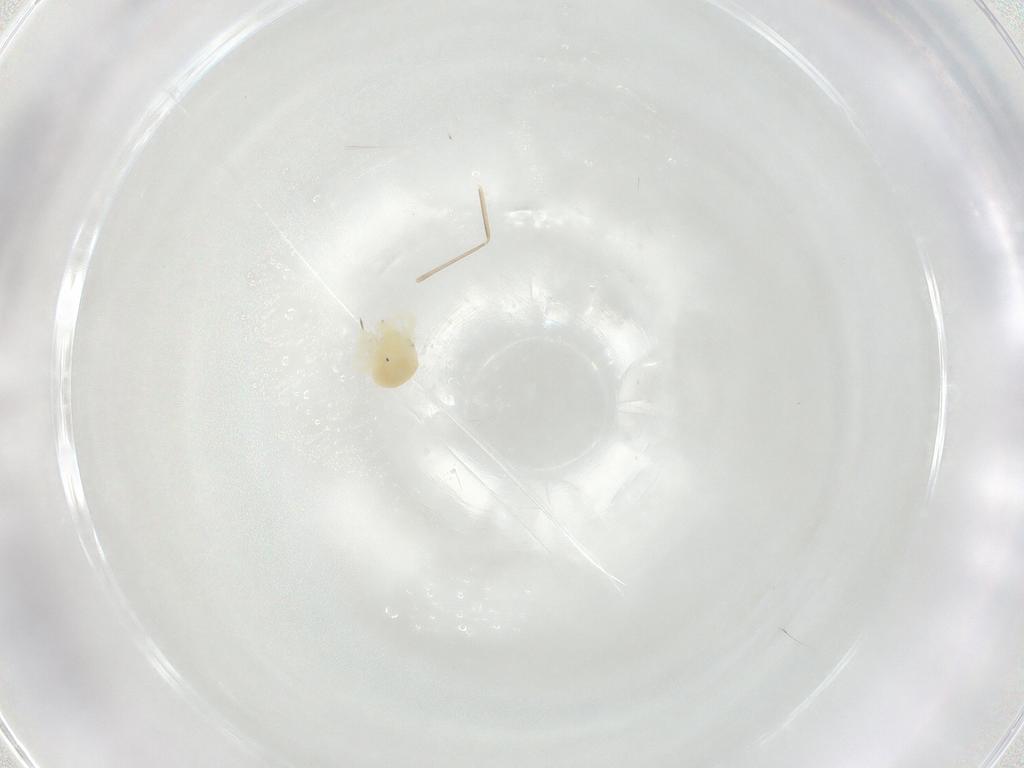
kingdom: Animalia
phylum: Arthropoda
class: Arachnida
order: Trombidiformes
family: Anystidae
